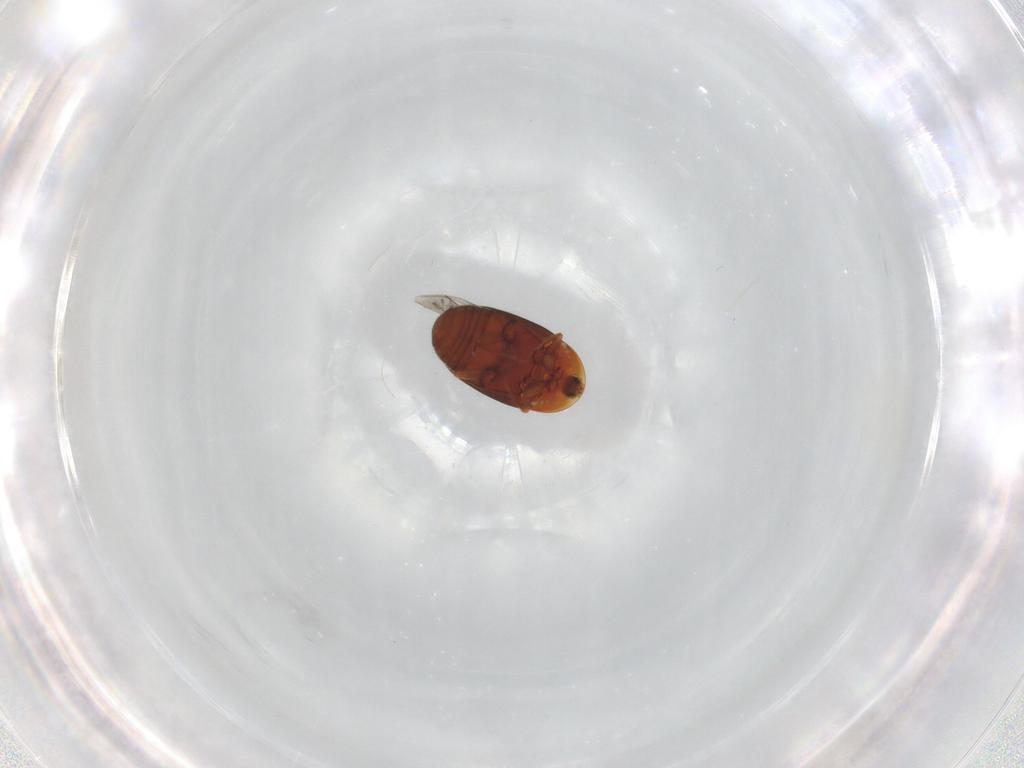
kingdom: Animalia
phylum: Arthropoda
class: Insecta
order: Coleoptera
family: Corylophidae
